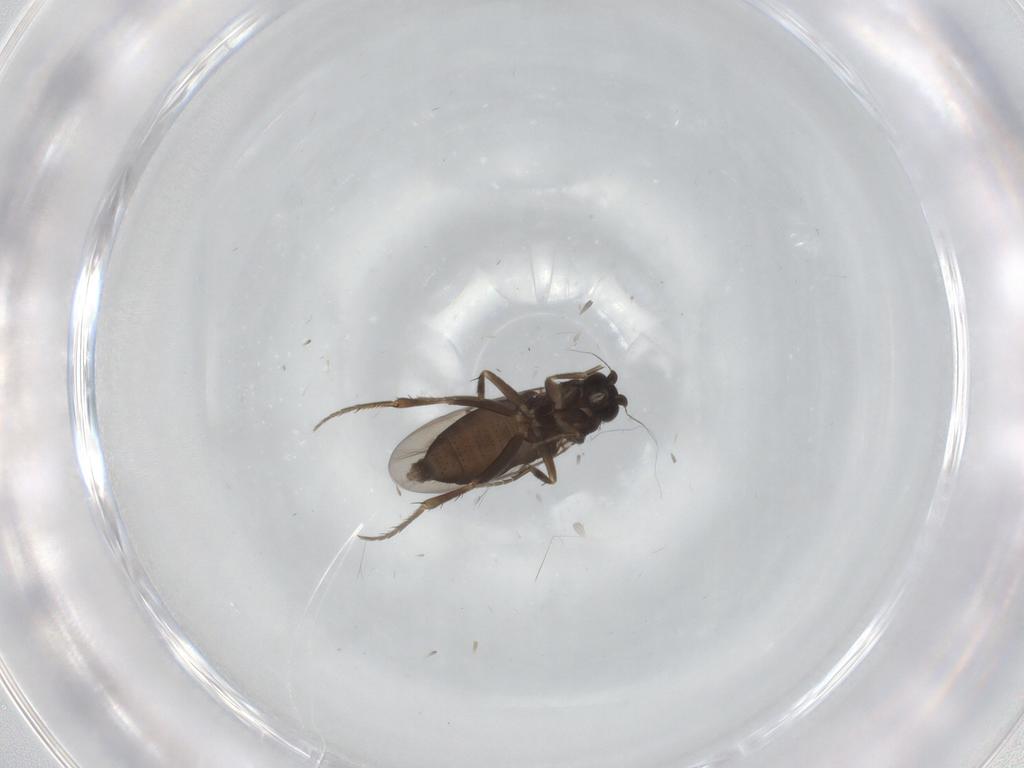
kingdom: Animalia
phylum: Arthropoda
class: Insecta
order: Diptera
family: Phoridae
